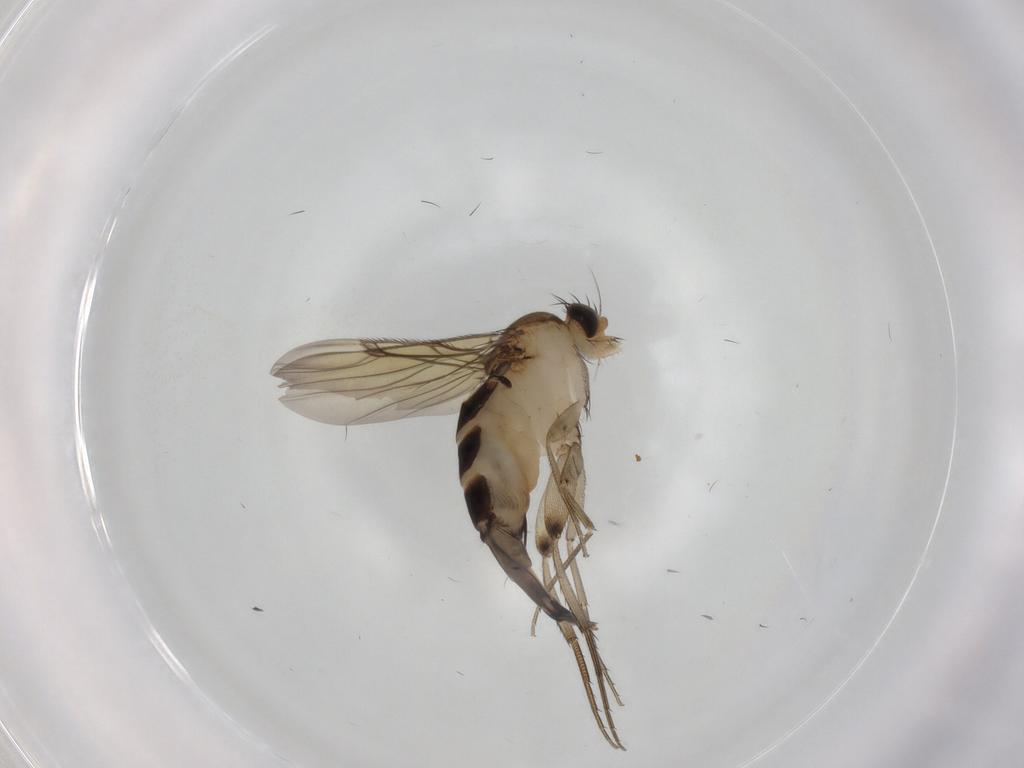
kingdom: Animalia
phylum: Arthropoda
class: Insecta
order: Diptera
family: Phoridae
